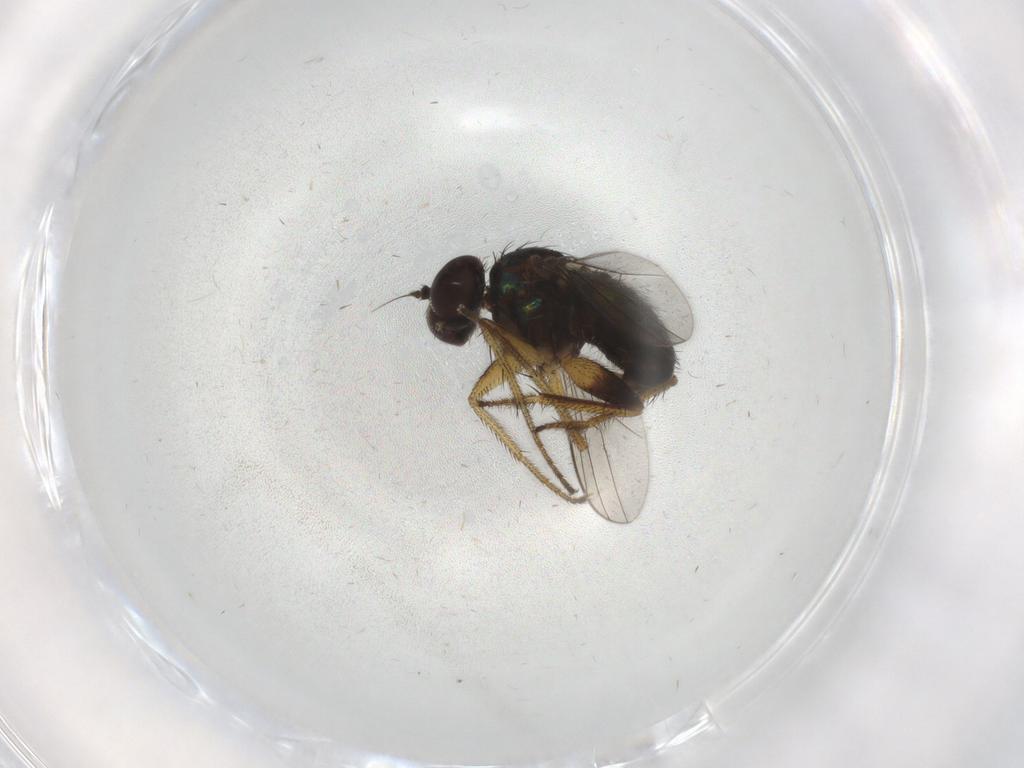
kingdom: Animalia
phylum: Arthropoda
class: Insecta
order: Diptera
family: Dolichopodidae
